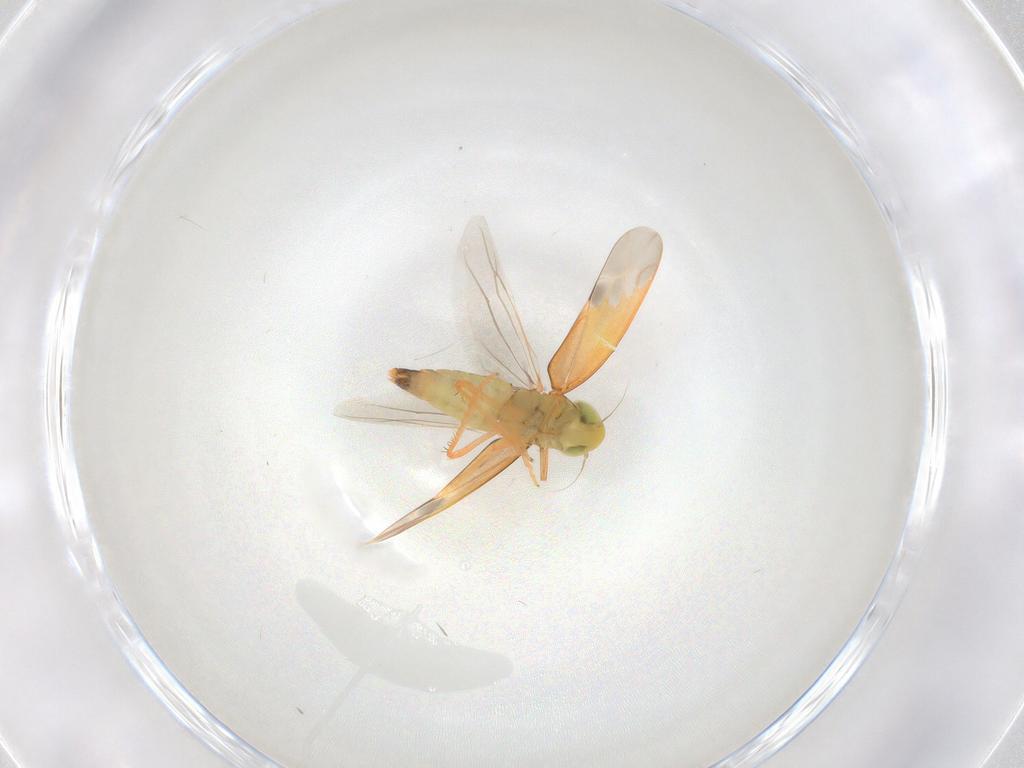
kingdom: Animalia
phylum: Arthropoda
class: Insecta
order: Hemiptera
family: Cicadellidae
